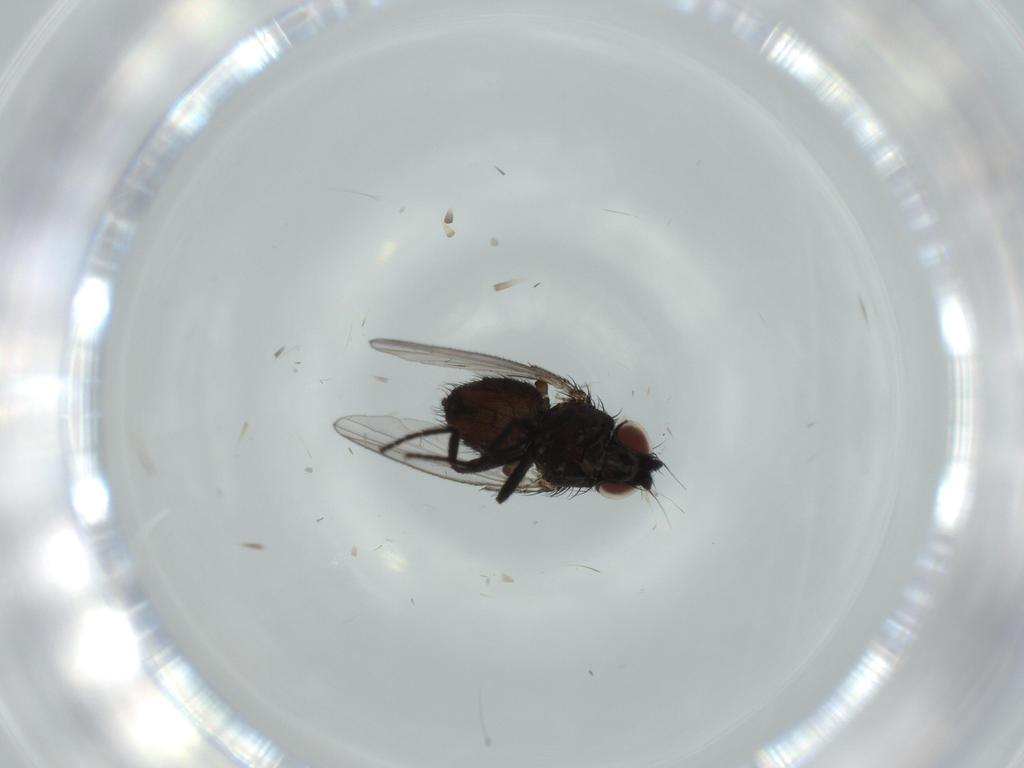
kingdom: Animalia
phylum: Arthropoda
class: Insecta
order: Diptera
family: Milichiidae
